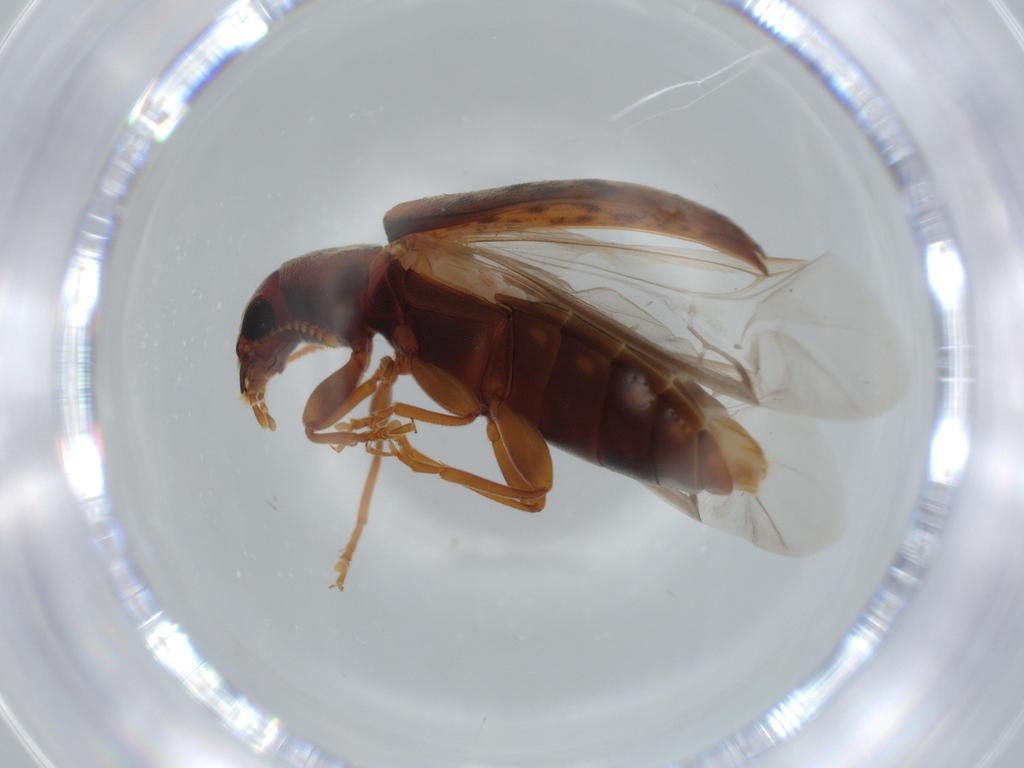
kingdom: Animalia
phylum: Arthropoda
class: Insecta
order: Coleoptera
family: Mycteridae
